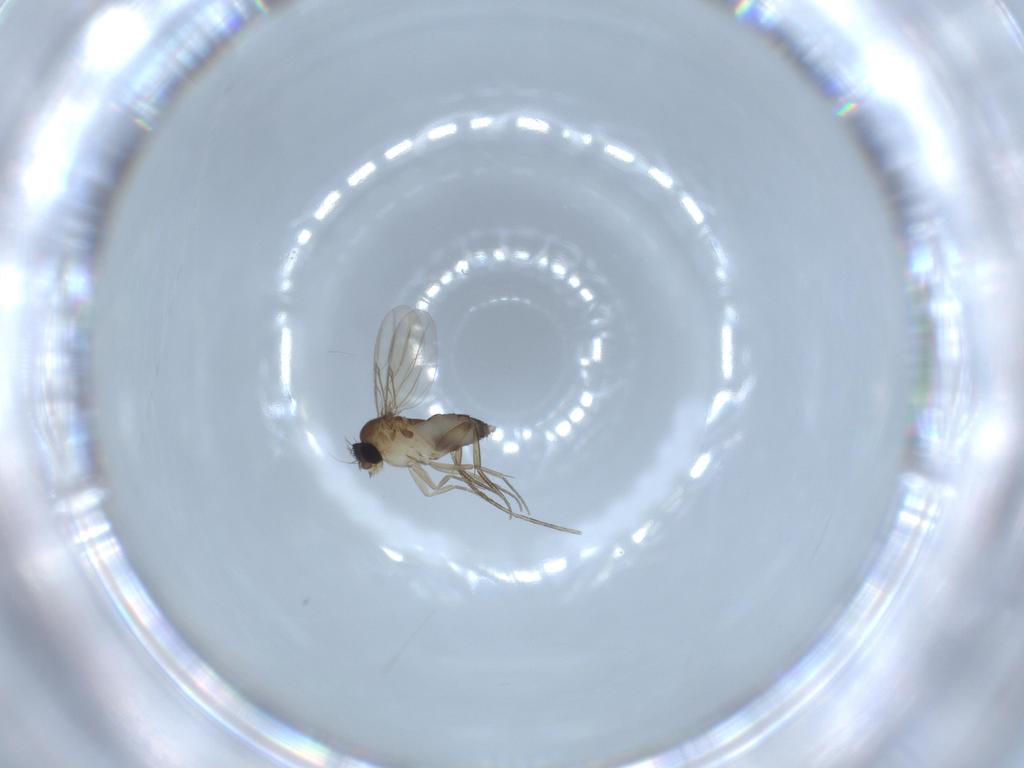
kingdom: Animalia
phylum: Arthropoda
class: Insecta
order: Diptera
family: Phoridae
